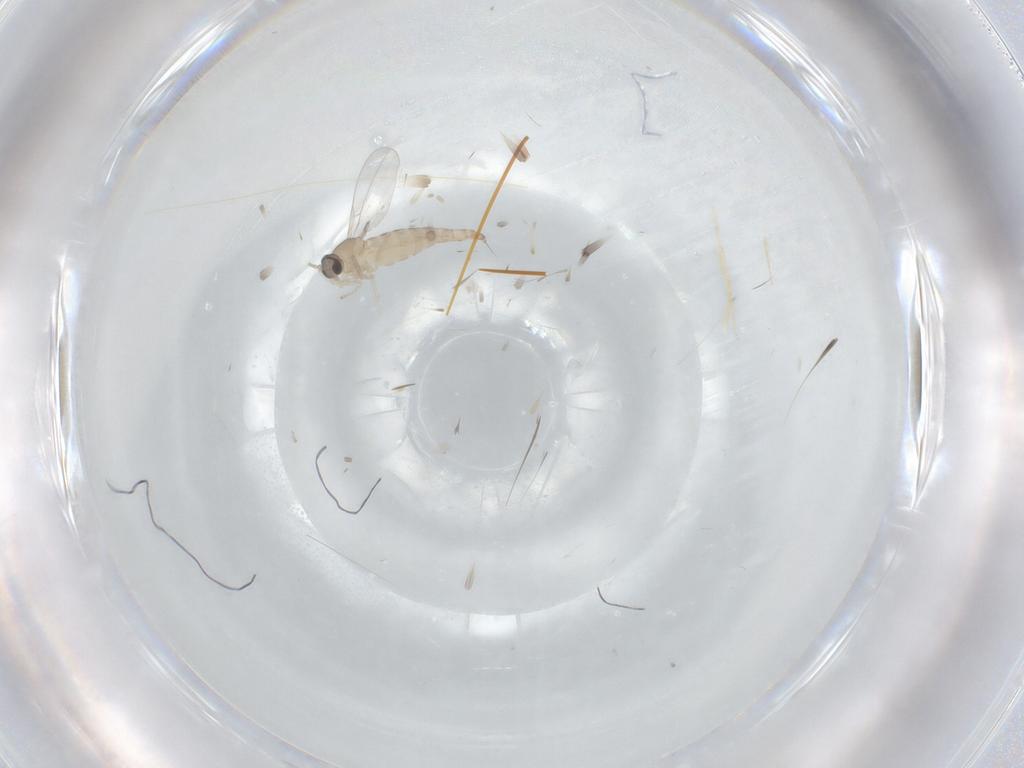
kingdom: Animalia
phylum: Arthropoda
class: Insecta
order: Diptera
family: Cecidomyiidae
